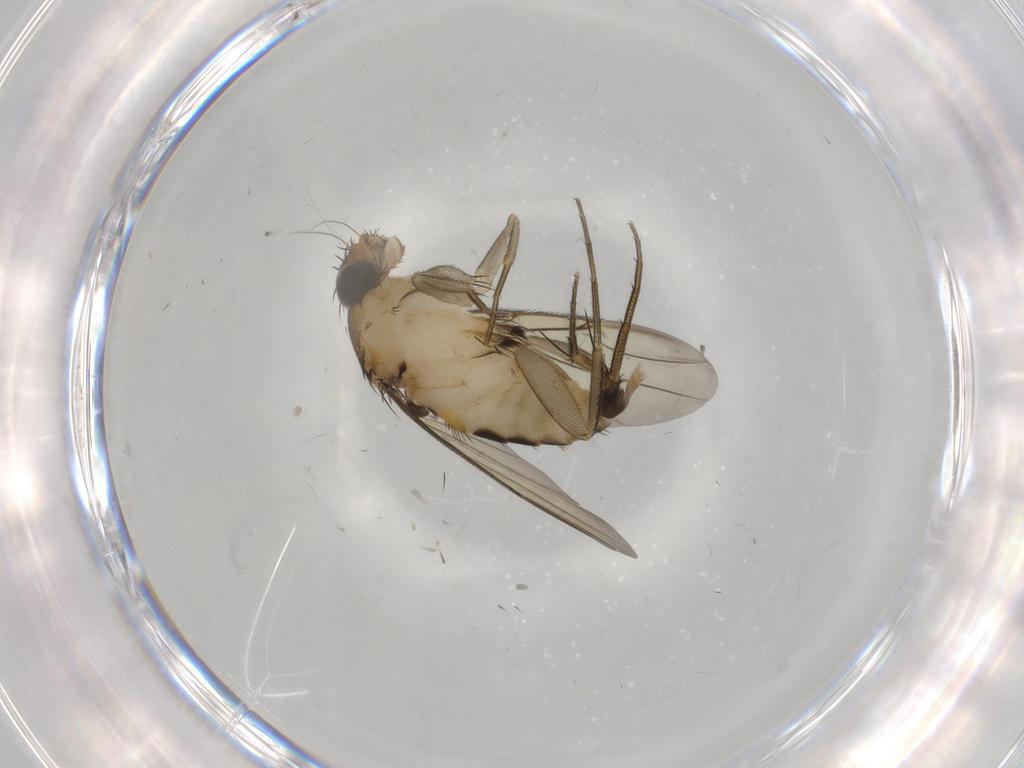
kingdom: Animalia
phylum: Arthropoda
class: Insecta
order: Diptera
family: Phoridae
